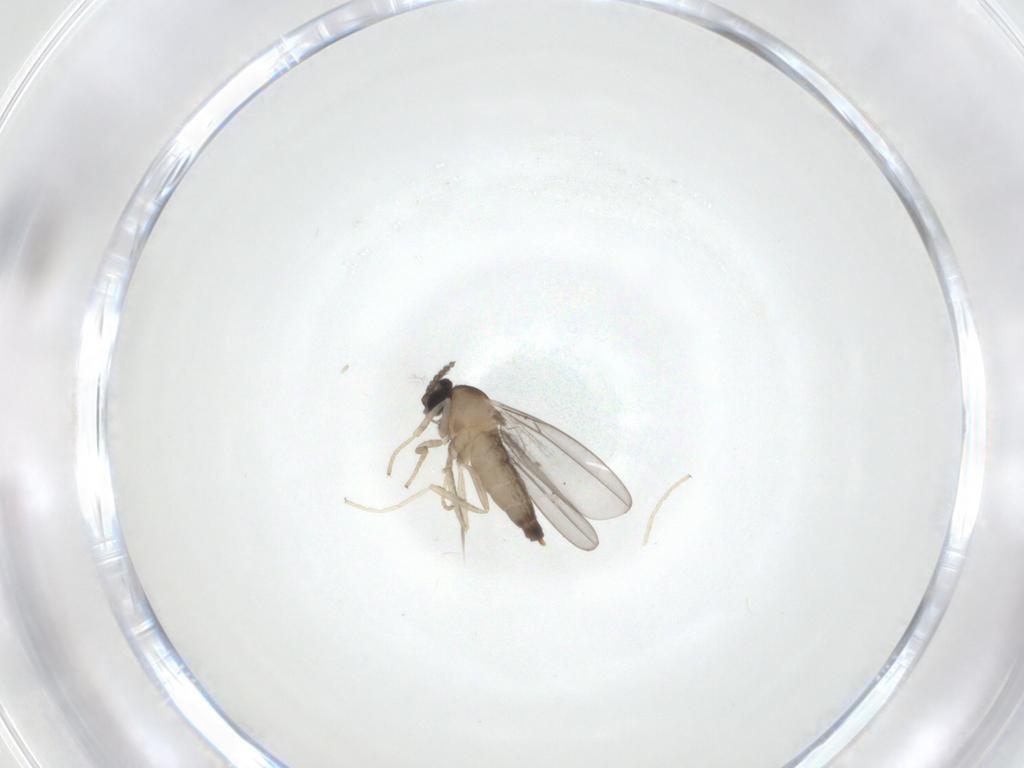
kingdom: Animalia
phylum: Arthropoda
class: Insecta
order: Diptera
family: Cecidomyiidae
